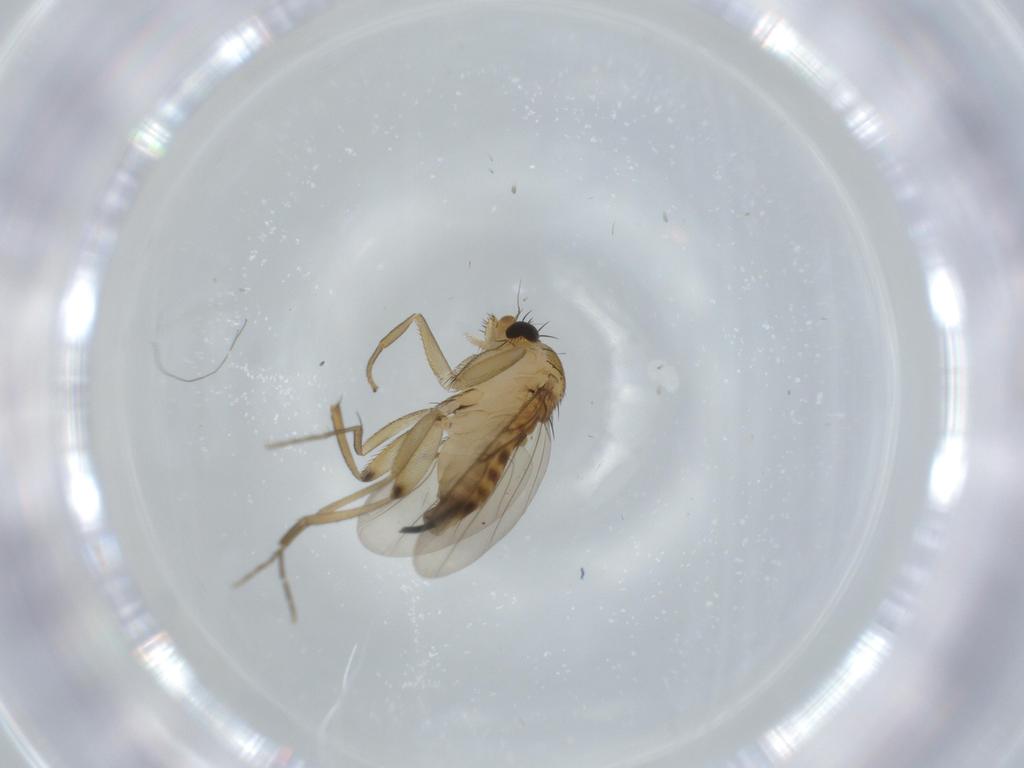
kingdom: Animalia
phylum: Arthropoda
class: Insecta
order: Diptera
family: Phoridae
